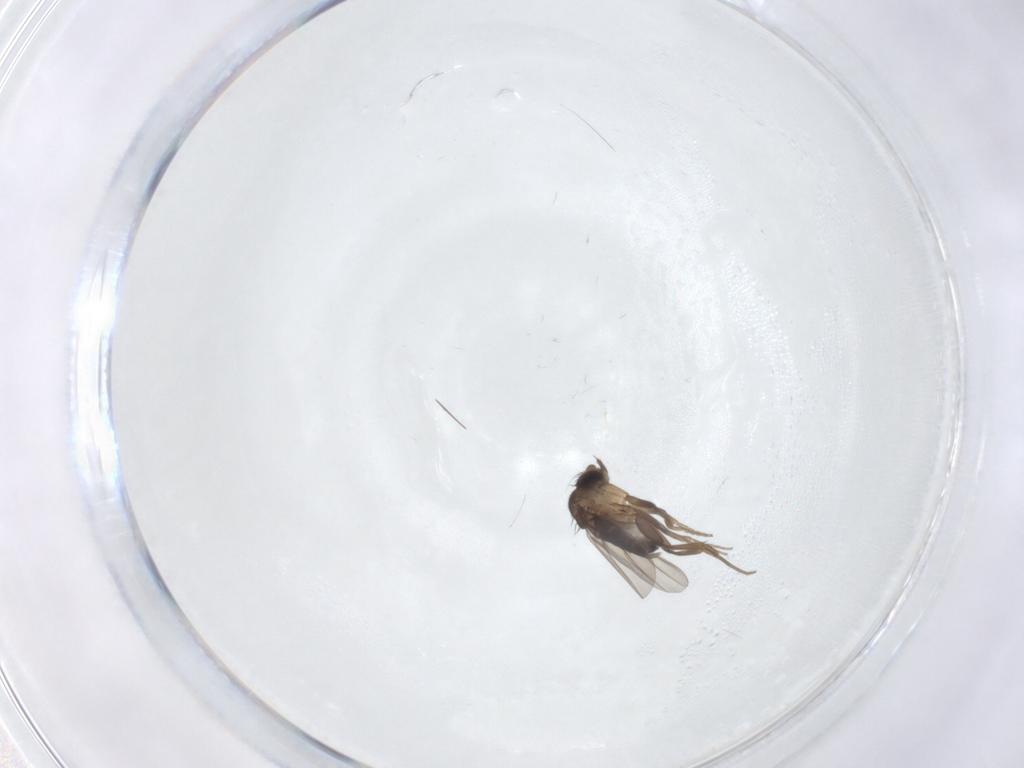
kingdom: Animalia
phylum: Arthropoda
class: Insecta
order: Diptera
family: Phoridae
